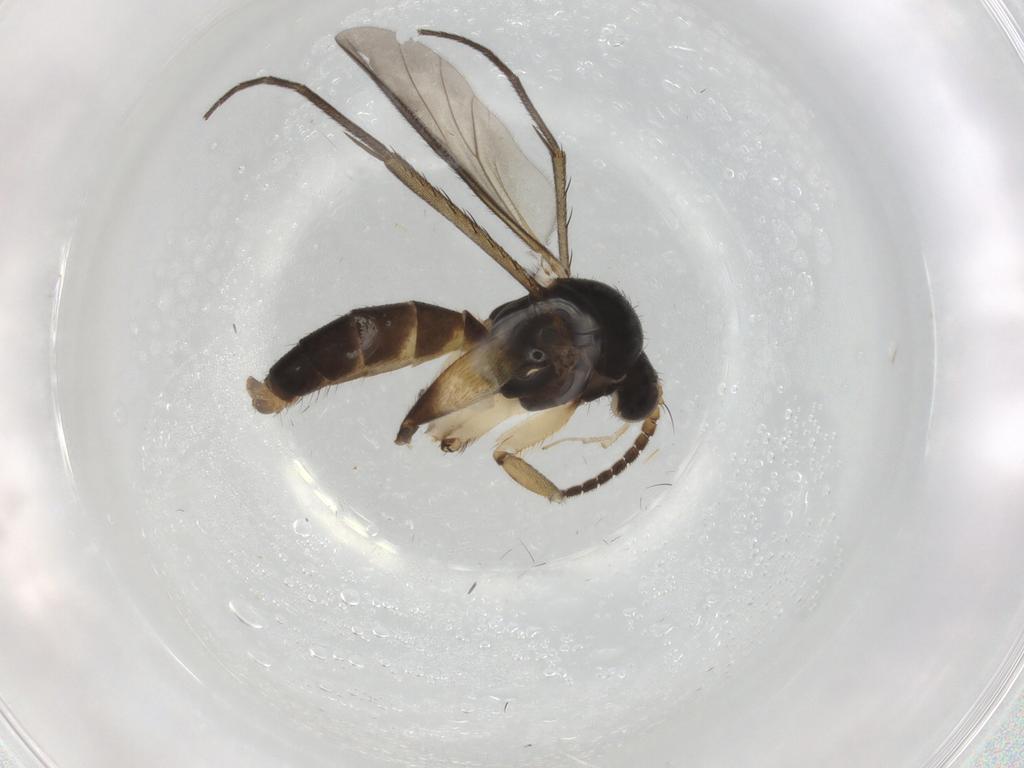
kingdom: Animalia
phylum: Arthropoda
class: Insecta
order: Diptera
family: Mycetophilidae
